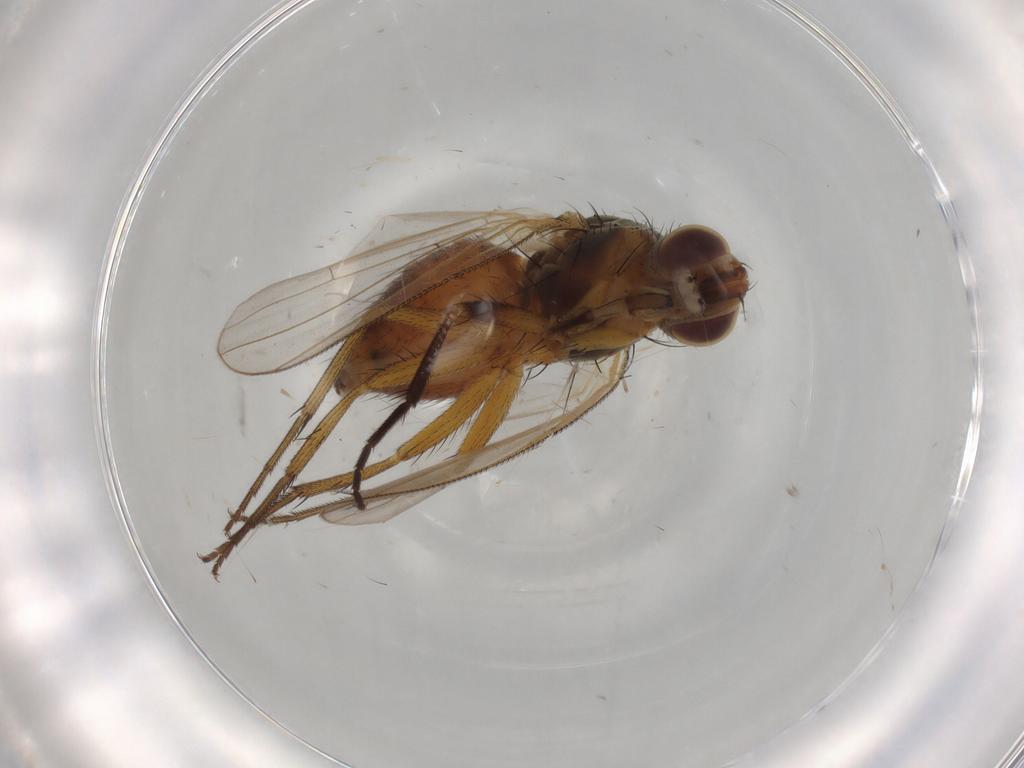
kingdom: Animalia
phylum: Arthropoda
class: Insecta
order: Diptera
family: Muscidae
